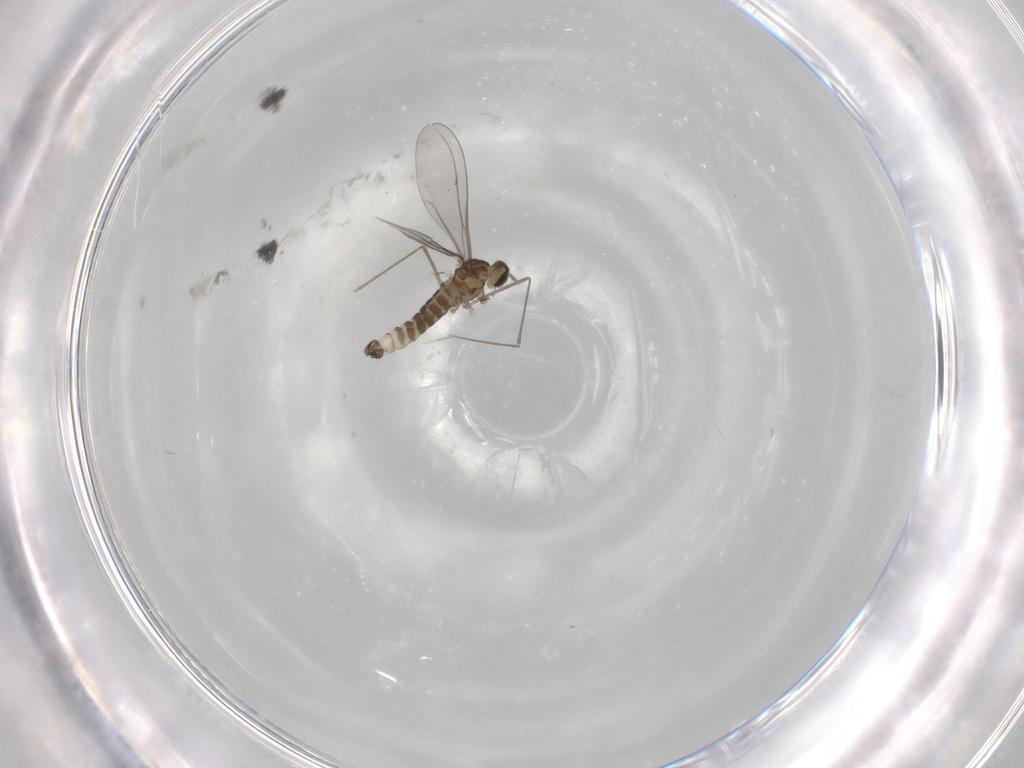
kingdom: Animalia
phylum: Arthropoda
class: Insecta
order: Diptera
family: Cecidomyiidae
